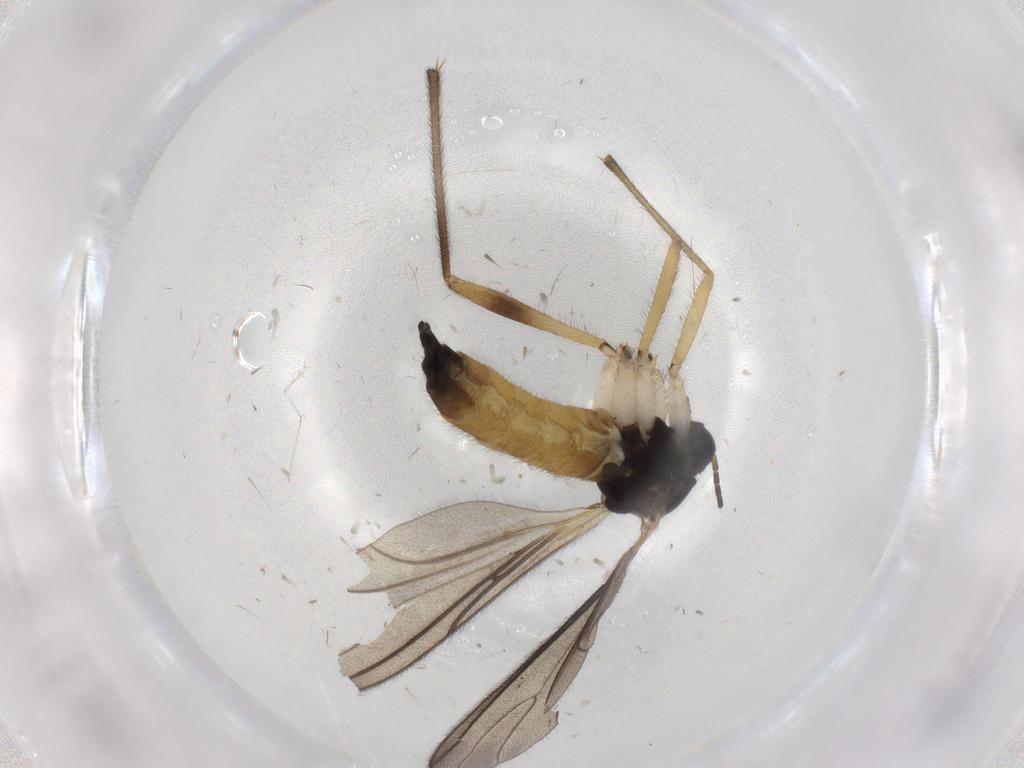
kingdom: Animalia
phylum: Arthropoda
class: Insecta
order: Diptera
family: Sciaridae
